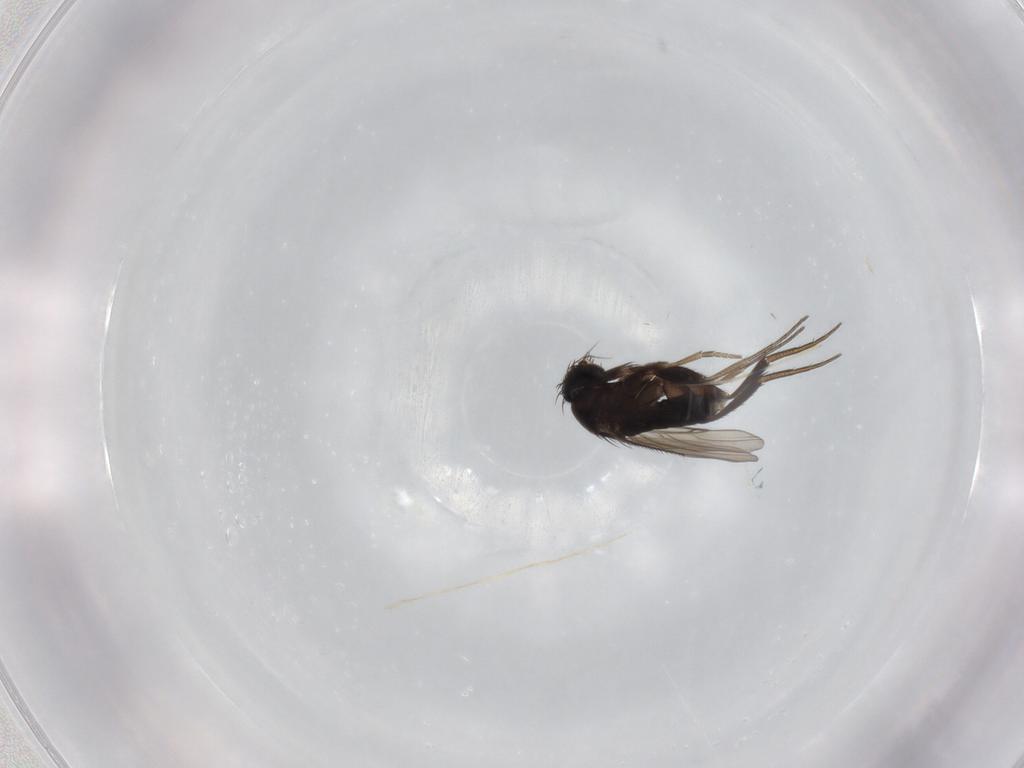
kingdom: Animalia
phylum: Arthropoda
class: Insecta
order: Diptera
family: Phoridae
